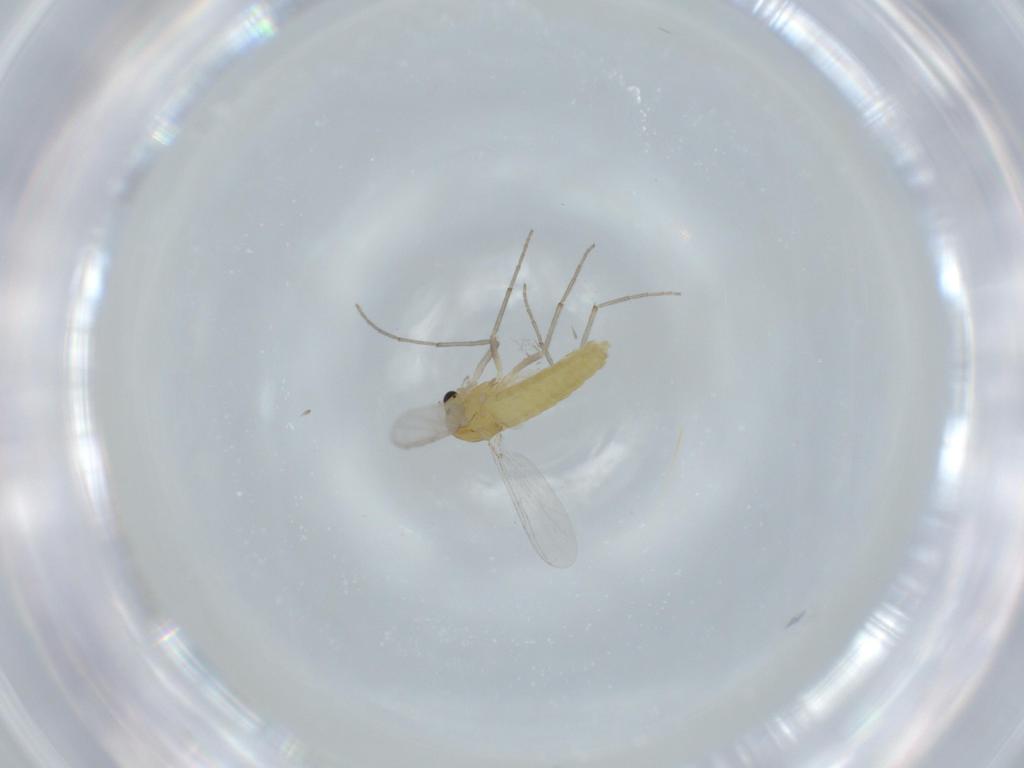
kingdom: Animalia
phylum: Arthropoda
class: Insecta
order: Diptera
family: Chironomidae
